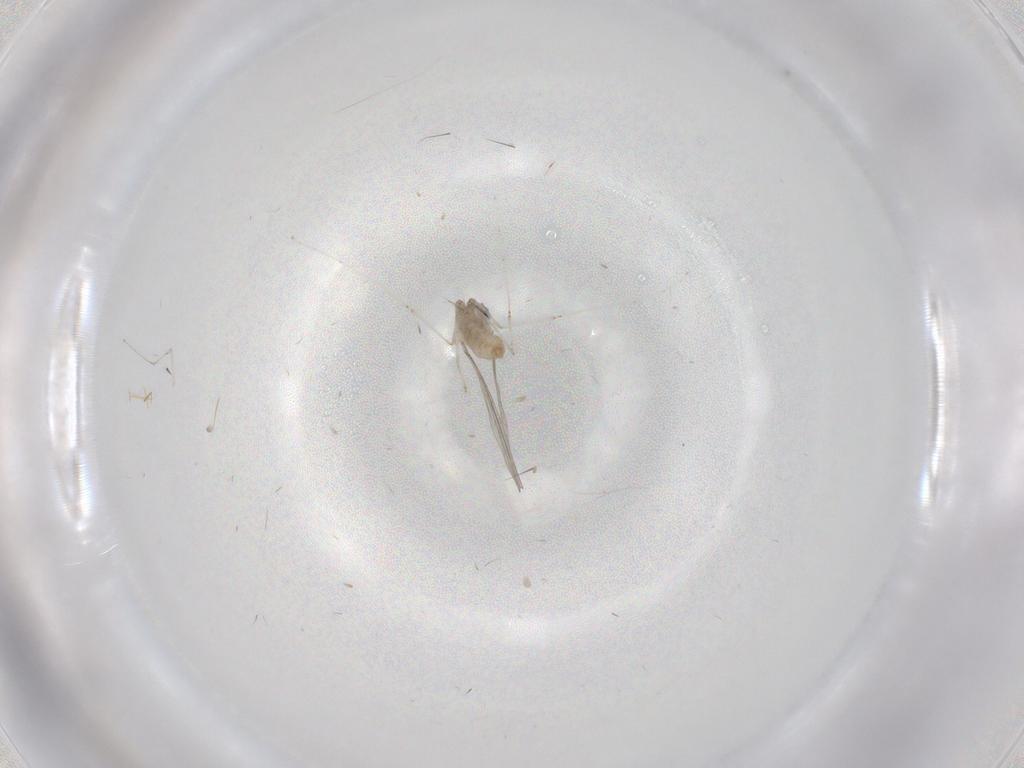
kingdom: Animalia
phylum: Arthropoda
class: Insecta
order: Diptera
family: Cecidomyiidae
